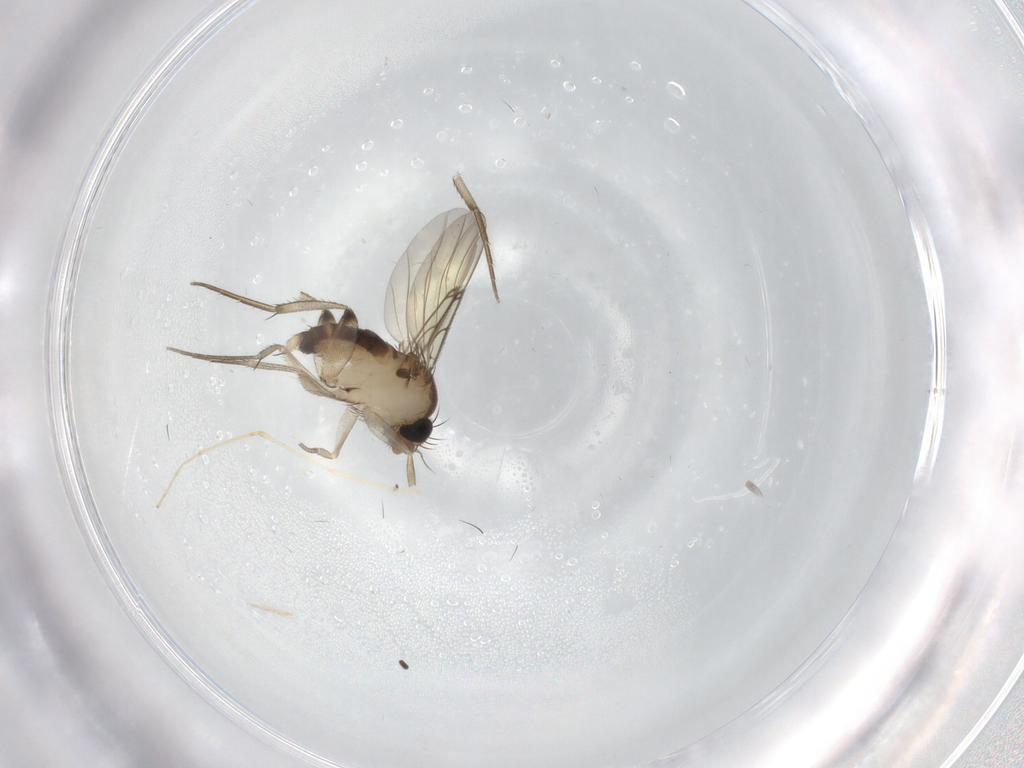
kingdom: Animalia
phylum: Arthropoda
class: Insecta
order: Diptera
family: Phoridae
